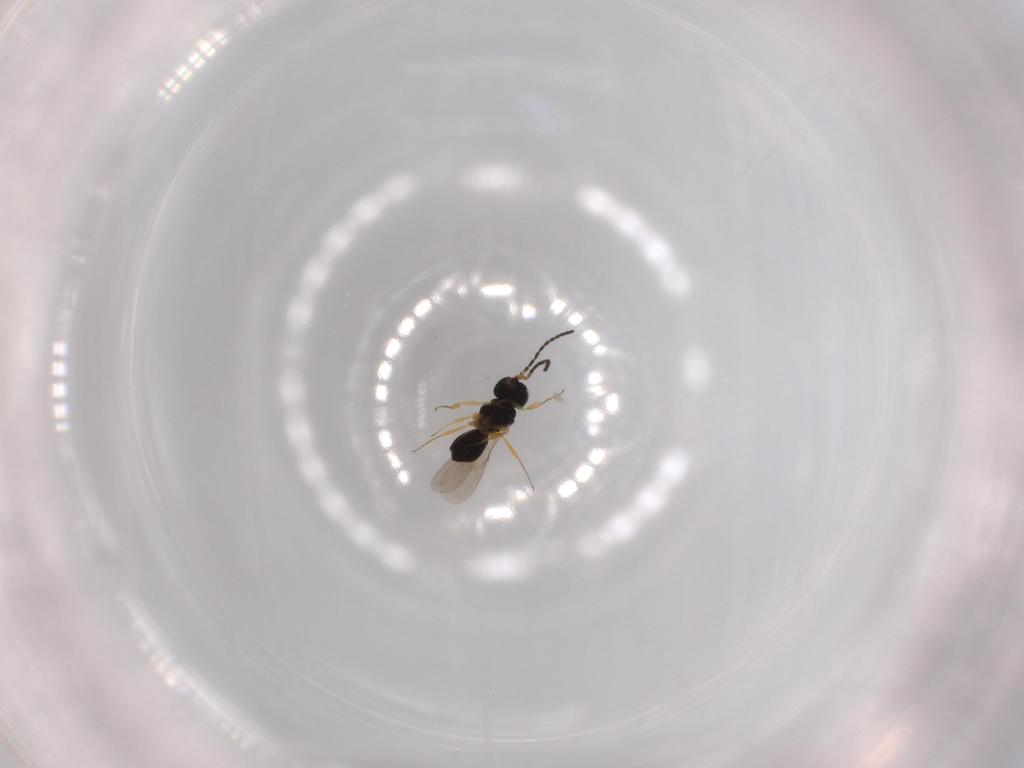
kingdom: Animalia
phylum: Arthropoda
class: Insecta
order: Hymenoptera
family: Scelionidae
